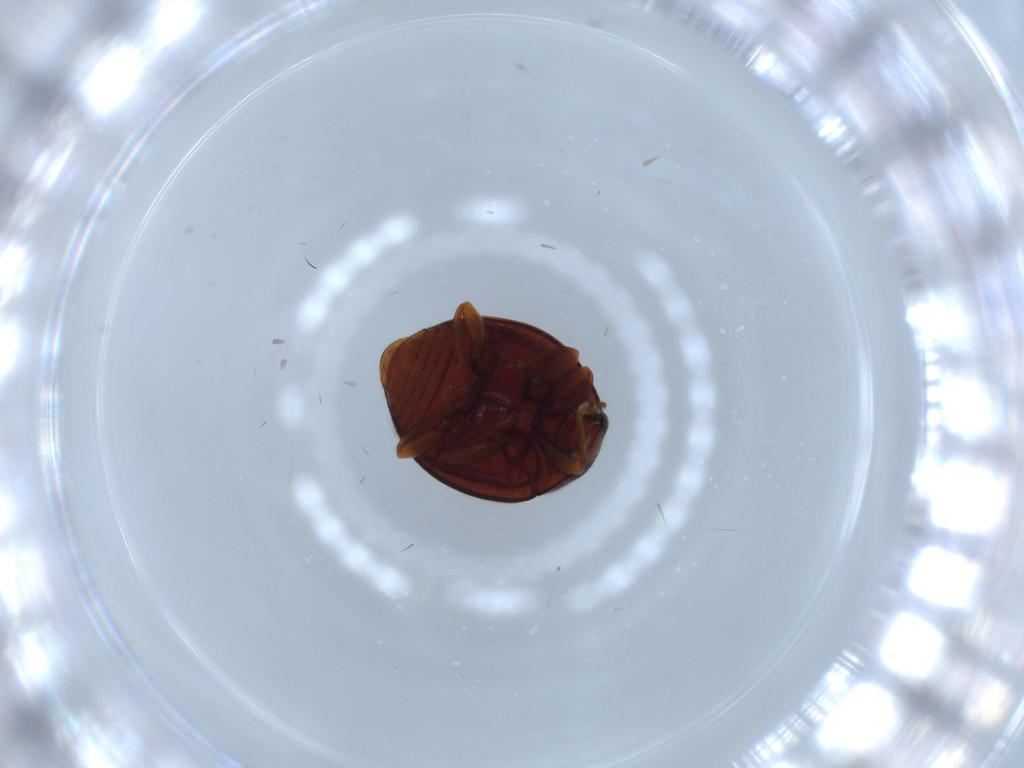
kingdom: Animalia
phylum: Arthropoda
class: Insecta
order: Coleoptera
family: Coccinellidae
